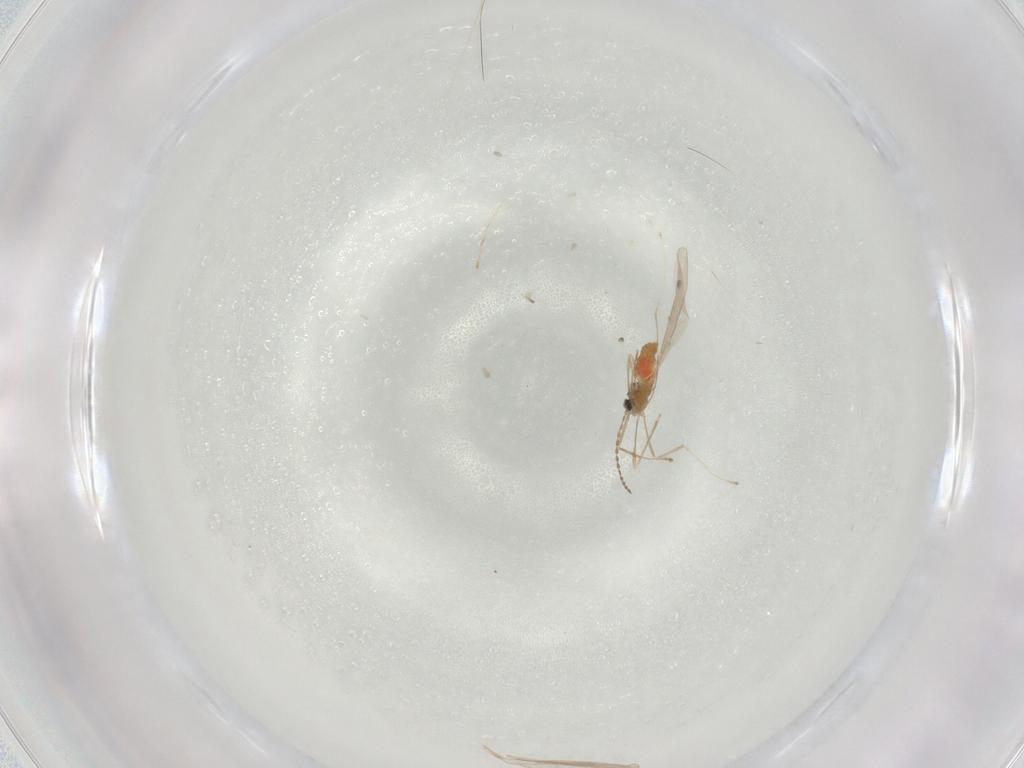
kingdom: Animalia
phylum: Arthropoda
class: Insecta
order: Diptera
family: Cecidomyiidae
